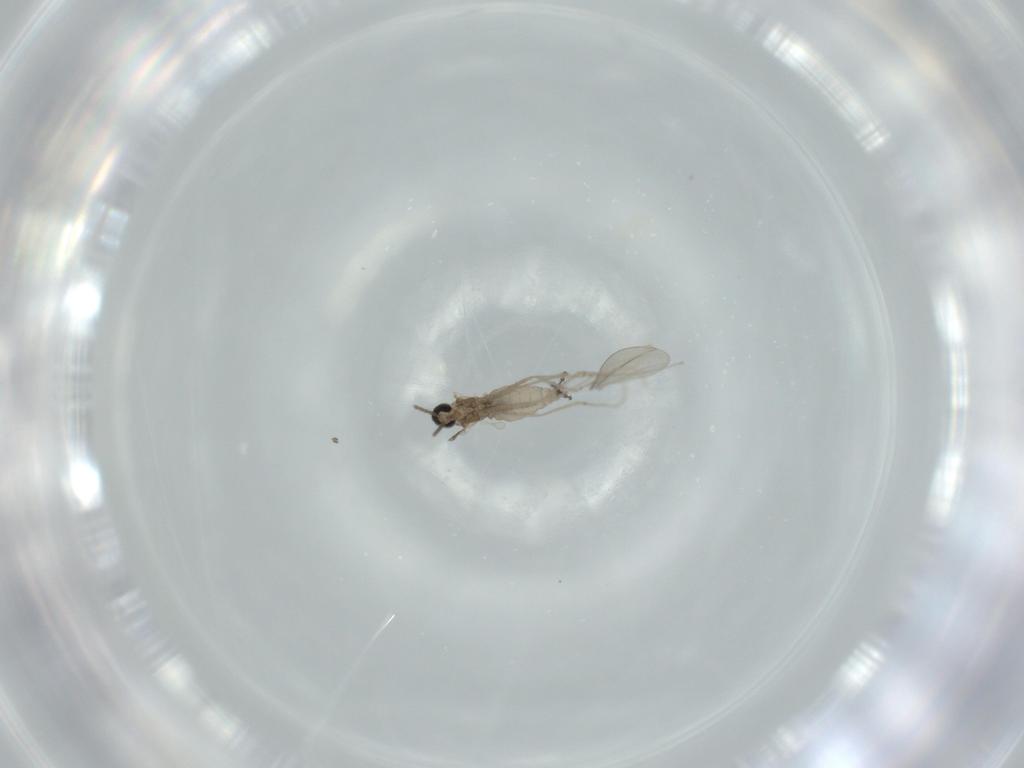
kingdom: Animalia
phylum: Arthropoda
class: Insecta
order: Diptera
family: Cecidomyiidae
